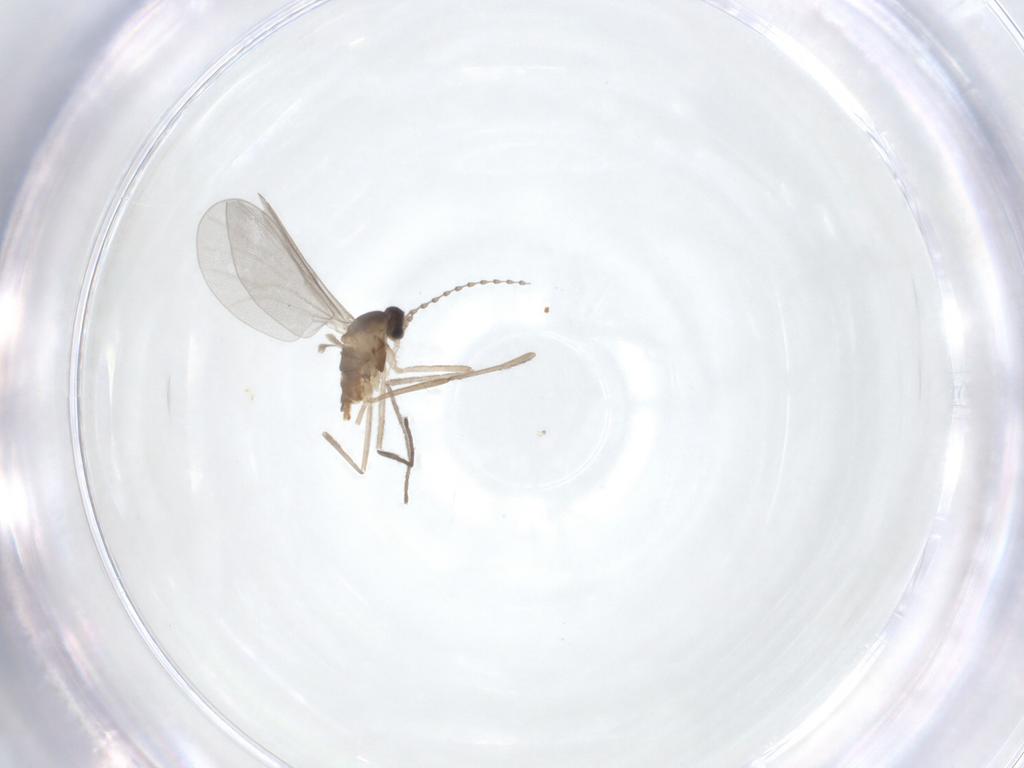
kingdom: Animalia
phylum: Arthropoda
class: Insecta
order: Diptera
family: Cecidomyiidae
